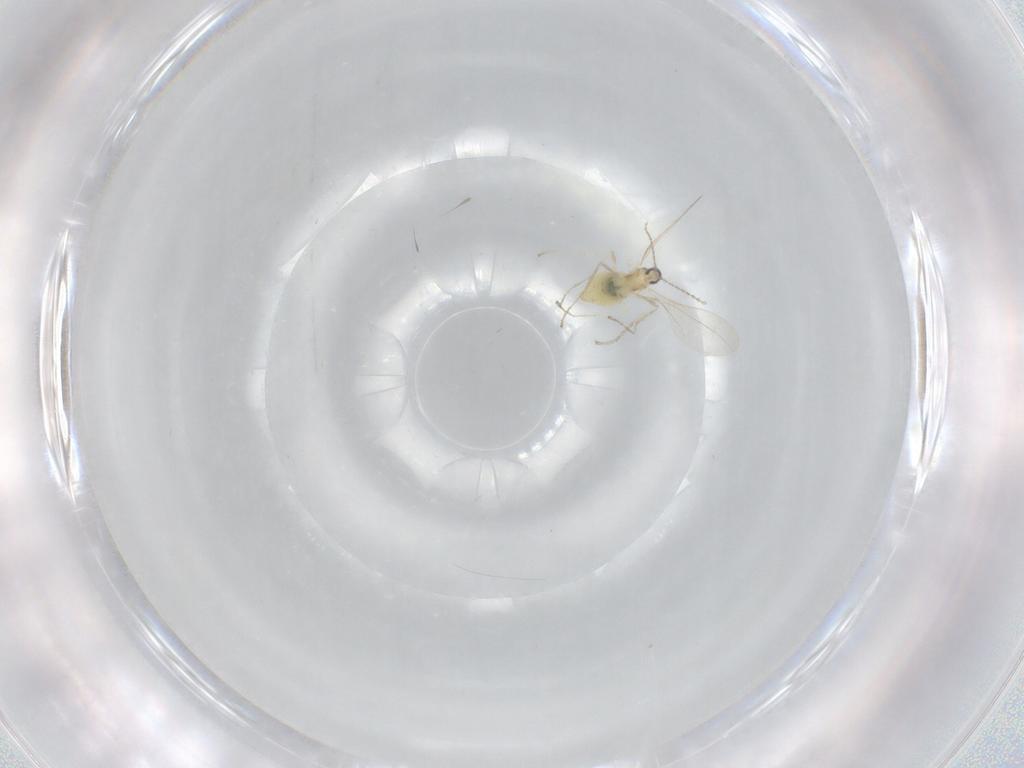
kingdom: Animalia
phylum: Arthropoda
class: Insecta
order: Diptera
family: Cecidomyiidae
